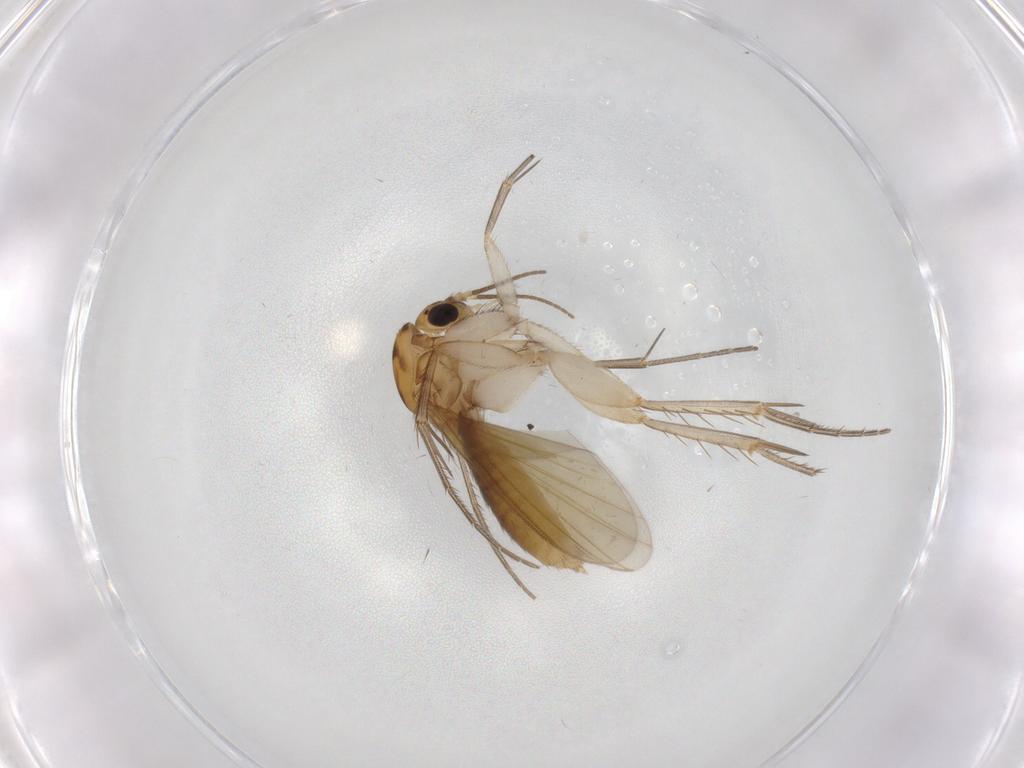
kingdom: Animalia
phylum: Arthropoda
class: Insecta
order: Diptera
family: Mycetophilidae
